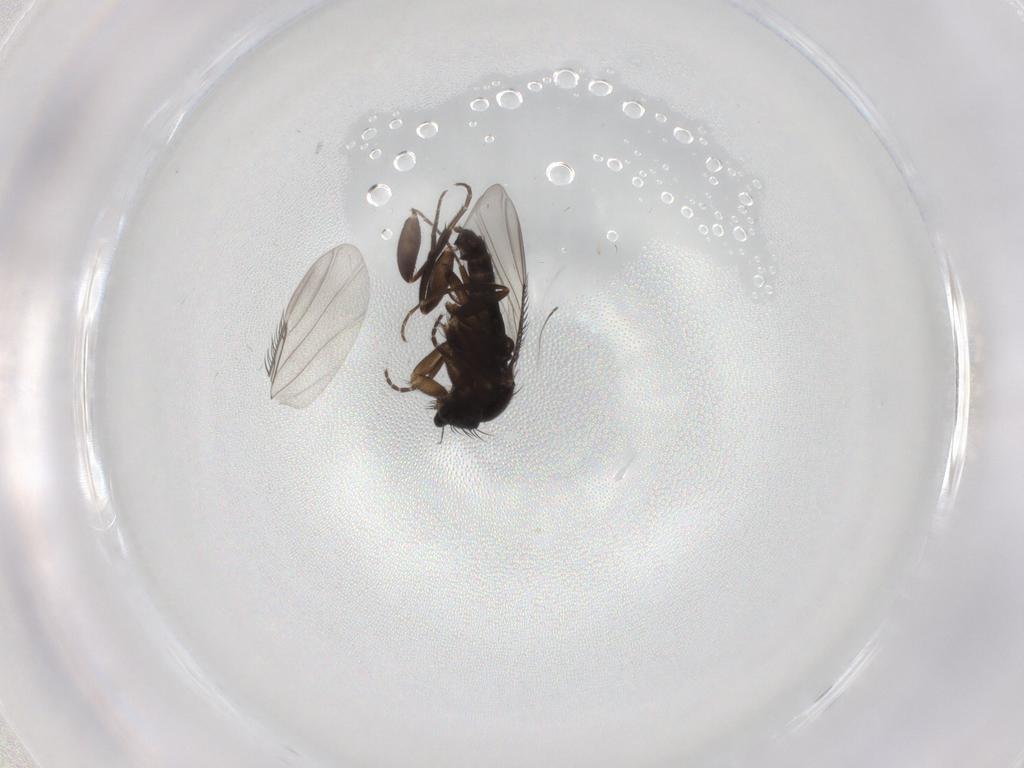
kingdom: Animalia
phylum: Arthropoda
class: Insecta
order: Diptera
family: Phoridae
